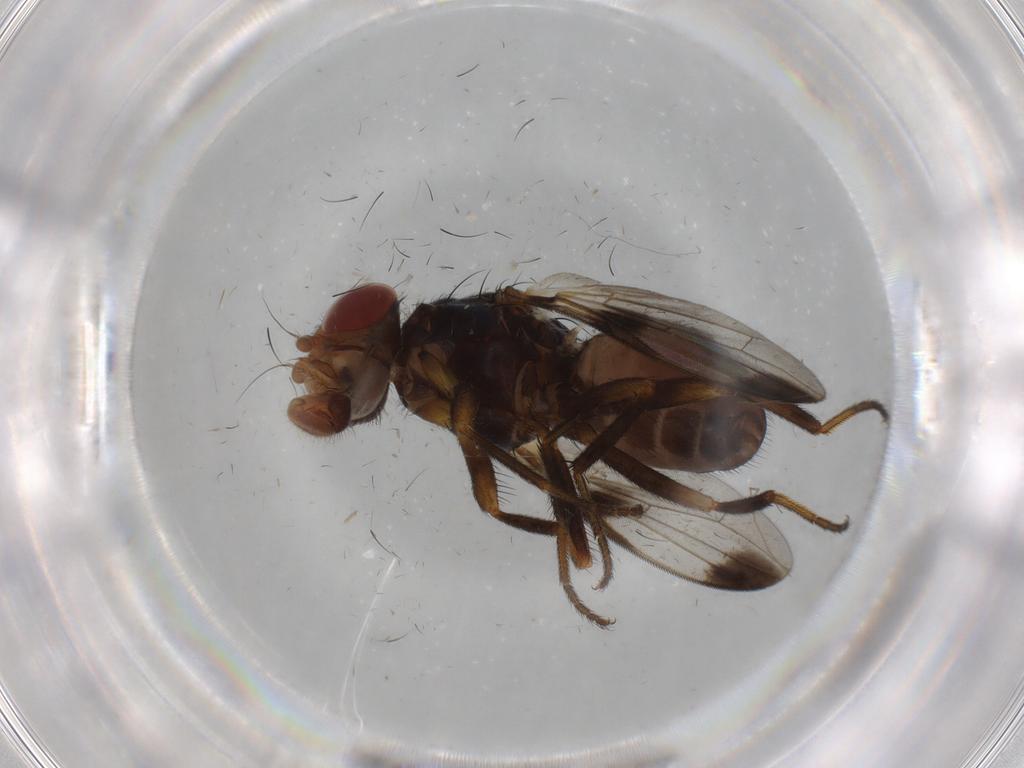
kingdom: Animalia
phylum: Arthropoda
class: Insecta
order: Diptera
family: Ceratopogonidae
